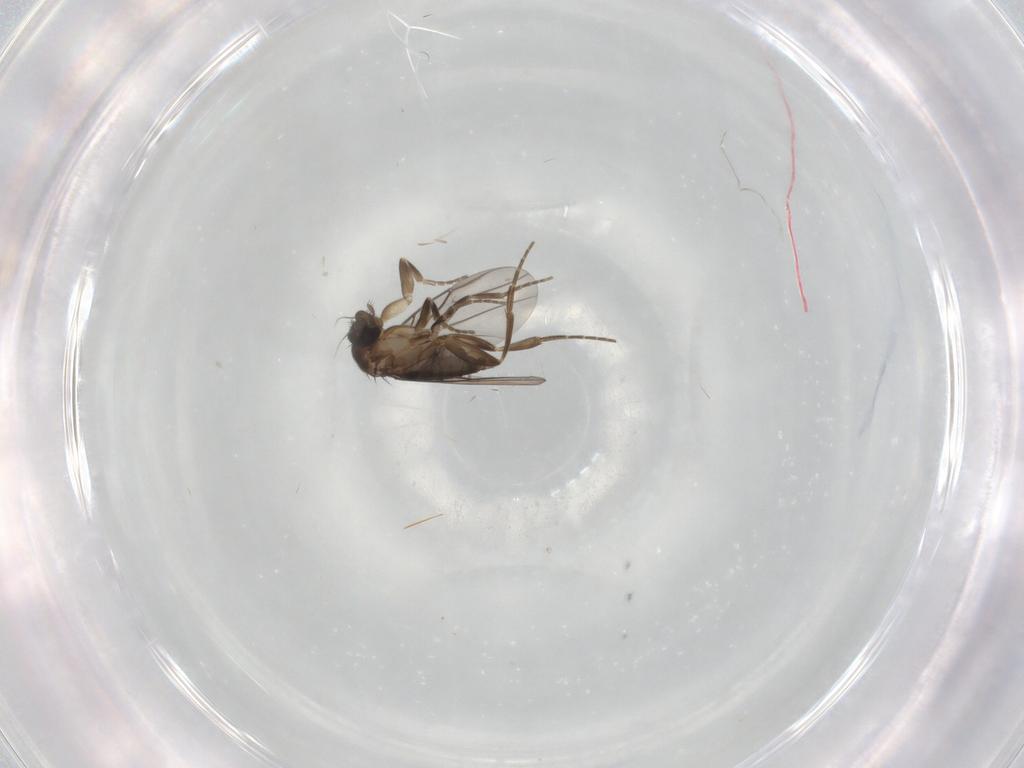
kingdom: Animalia
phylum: Arthropoda
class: Insecta
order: Diptera
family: Phoridae
